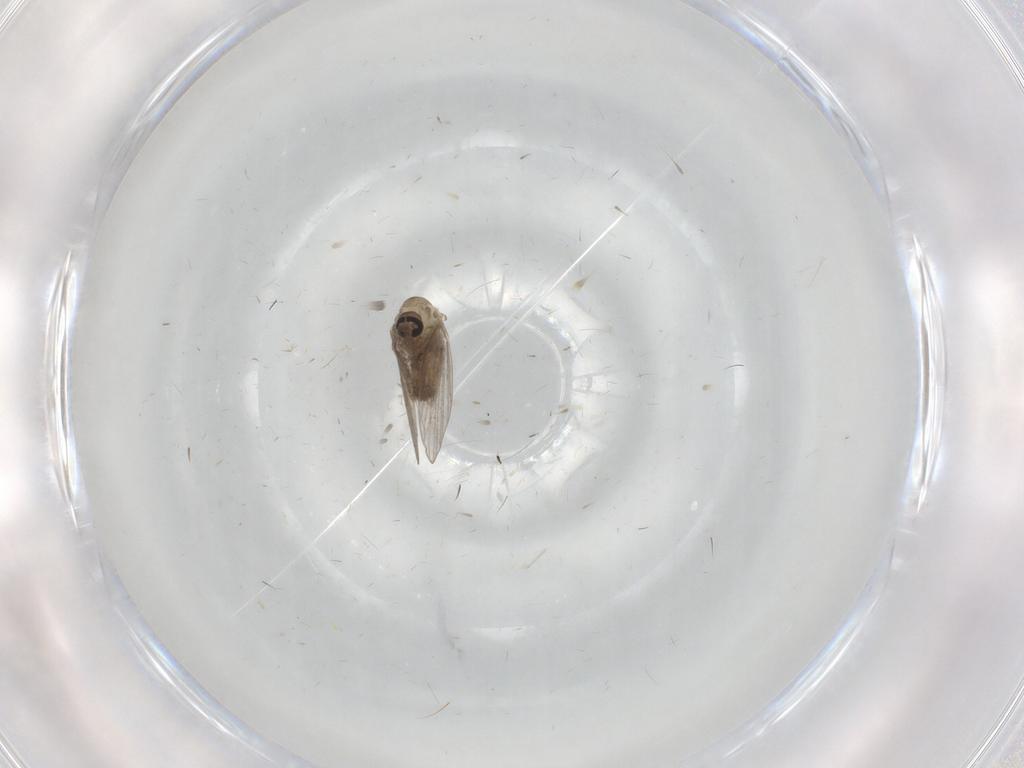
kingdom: Animalia
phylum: Arthropoda
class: Insecta
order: Diptera
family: Psychodidae
